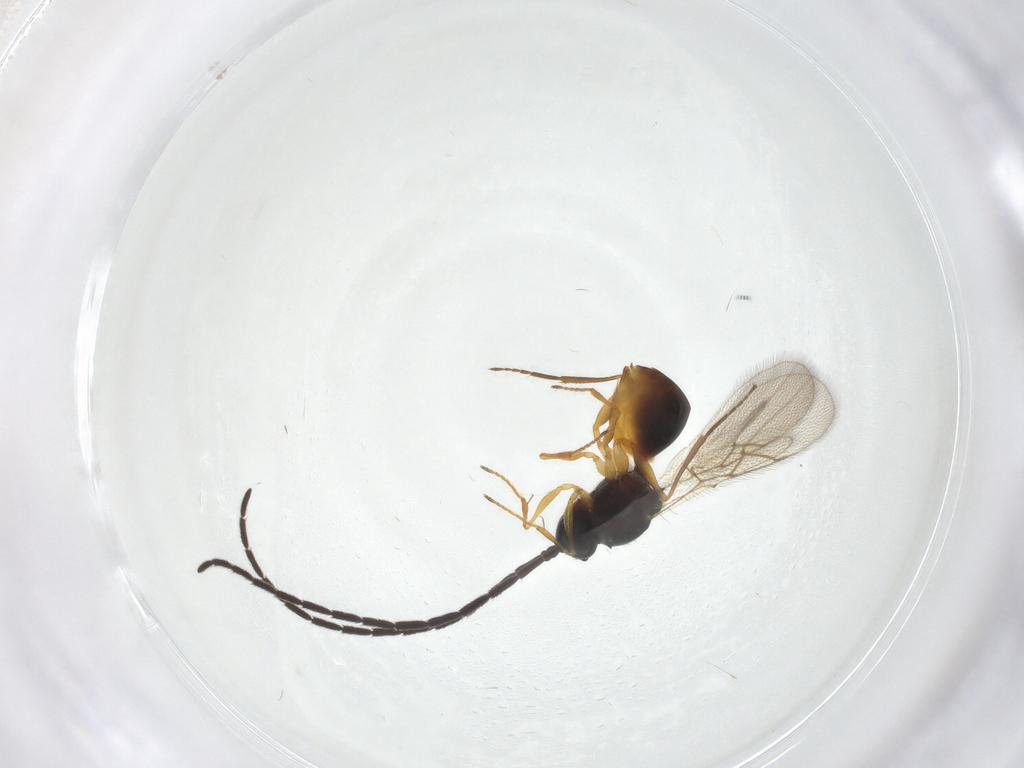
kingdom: Animalia
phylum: Arthropoda
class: Insecta
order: Hymenoptera
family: Figitidae
